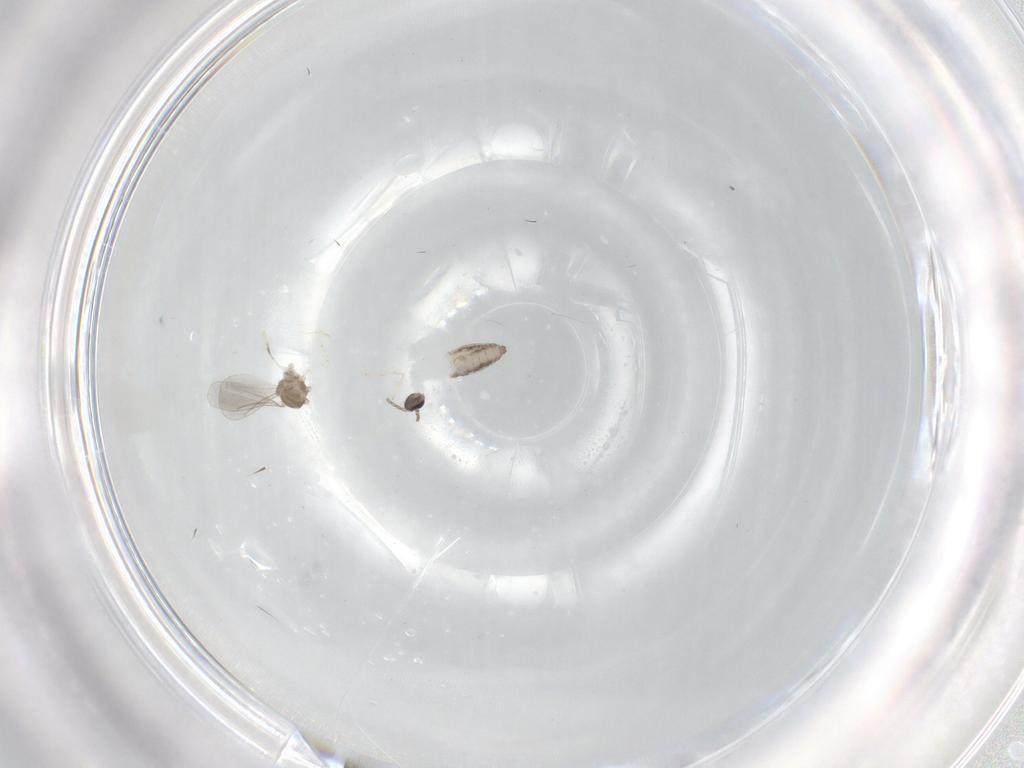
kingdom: Animalia
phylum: Arthropoda
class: Insecta
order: Diptera
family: Cecidomyiidae
